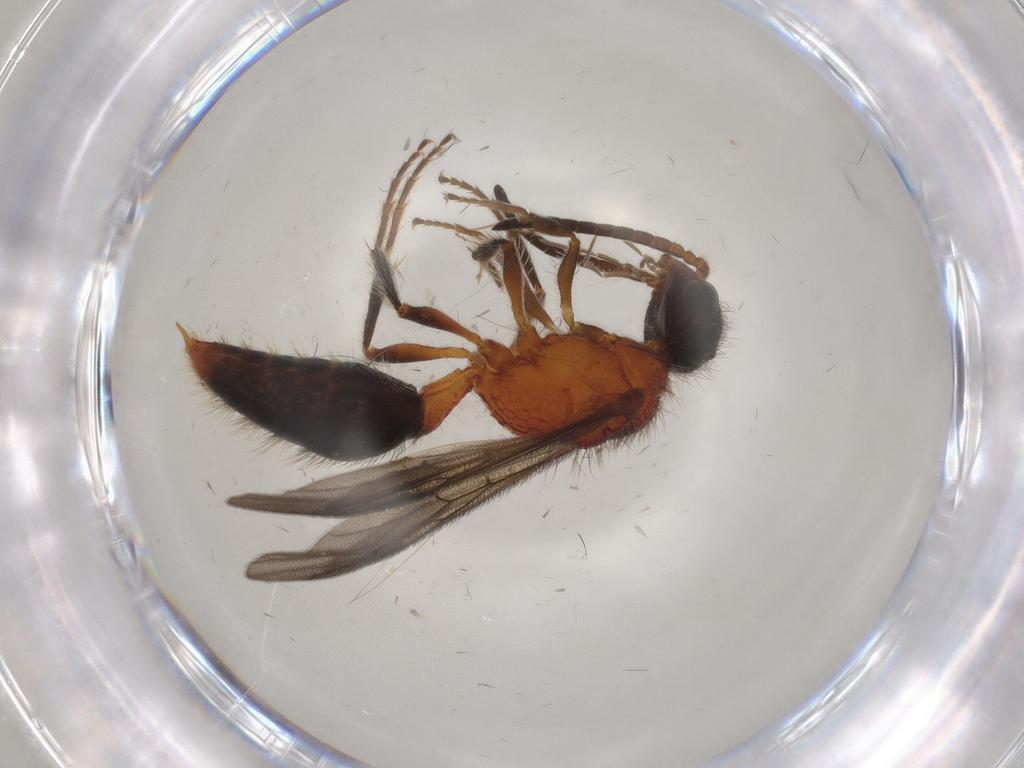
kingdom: Animalia
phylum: Arthropoda
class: Insecta
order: Hymenoptera
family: Mutillidae
